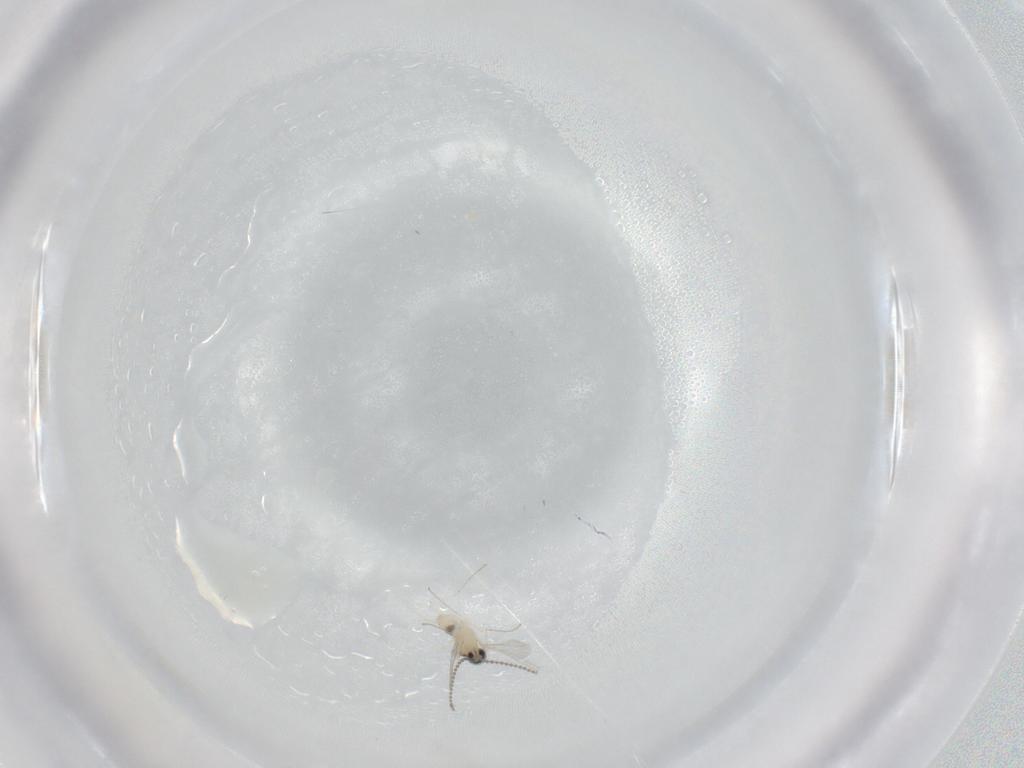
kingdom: Animalia
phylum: Arthropoda
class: Insecta
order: Diptera
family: Cecidomyiidae
